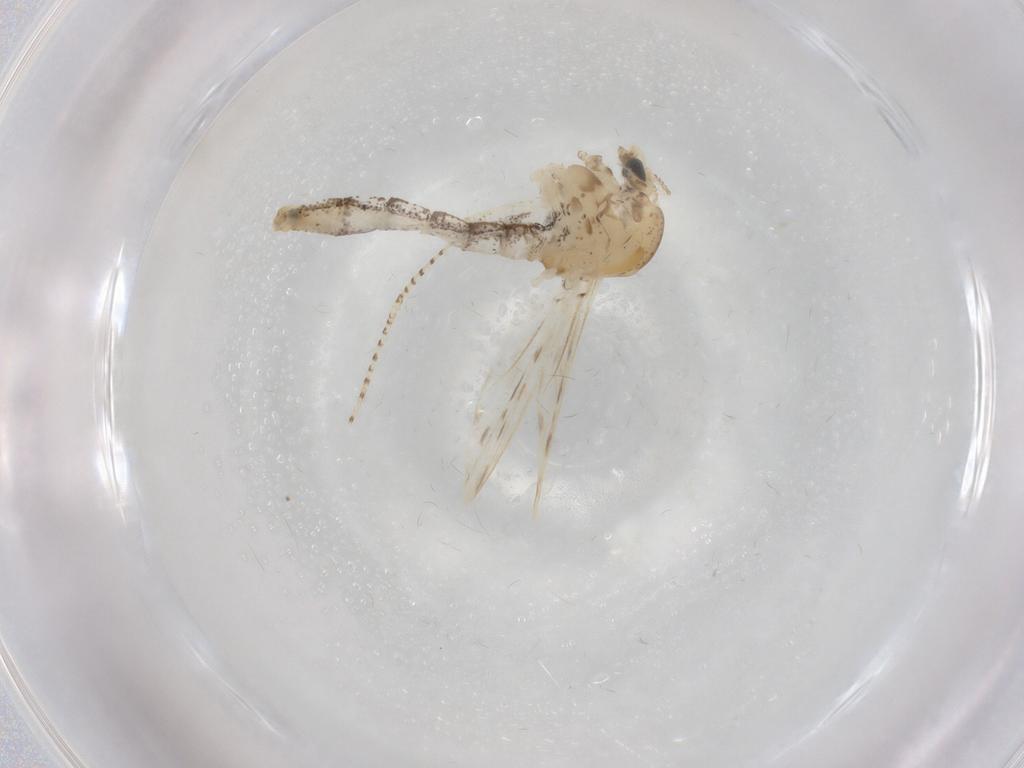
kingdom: Animalia
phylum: Arthropoda
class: Insecta
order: Diptera
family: Chaoboridae
